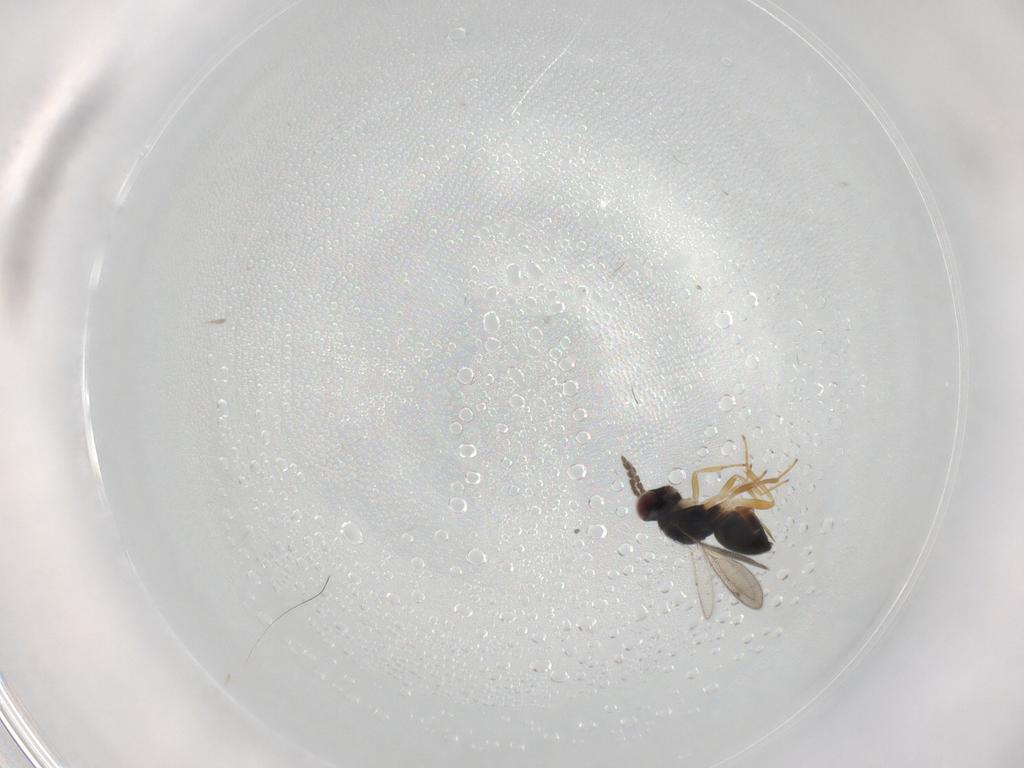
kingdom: Animalia
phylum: Arthropoda
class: Insecta
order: Hymenoptera
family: Eulophidae
